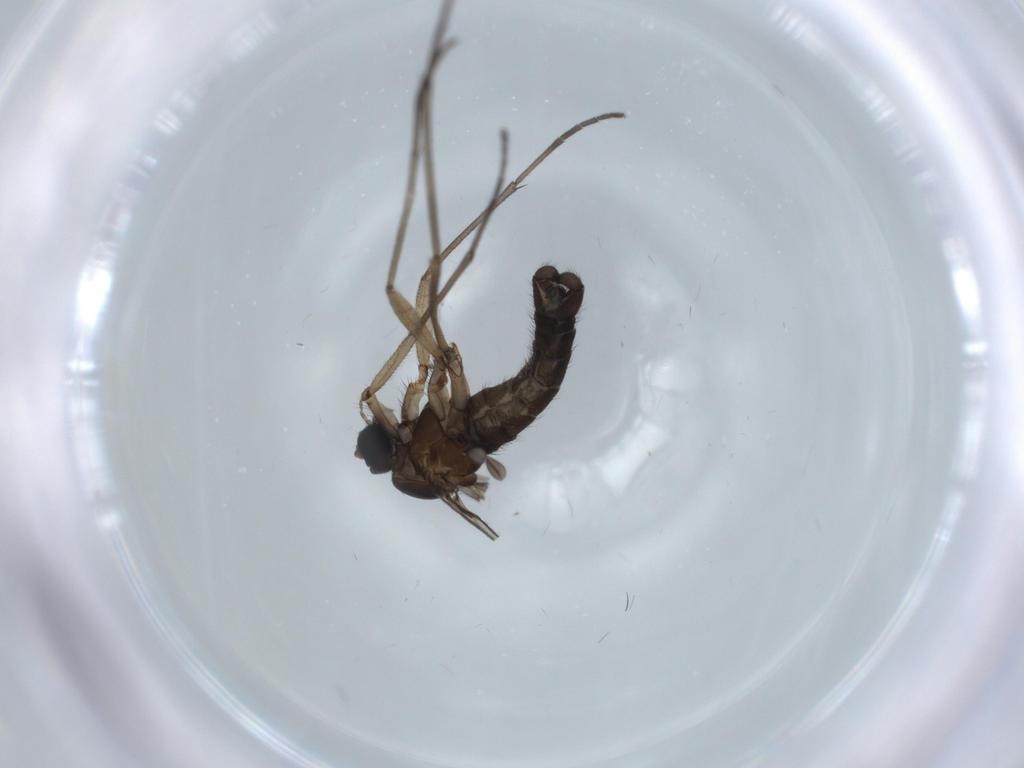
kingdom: Animalia
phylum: Arthropoda
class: Insecta
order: Diptera
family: Sciaridae
